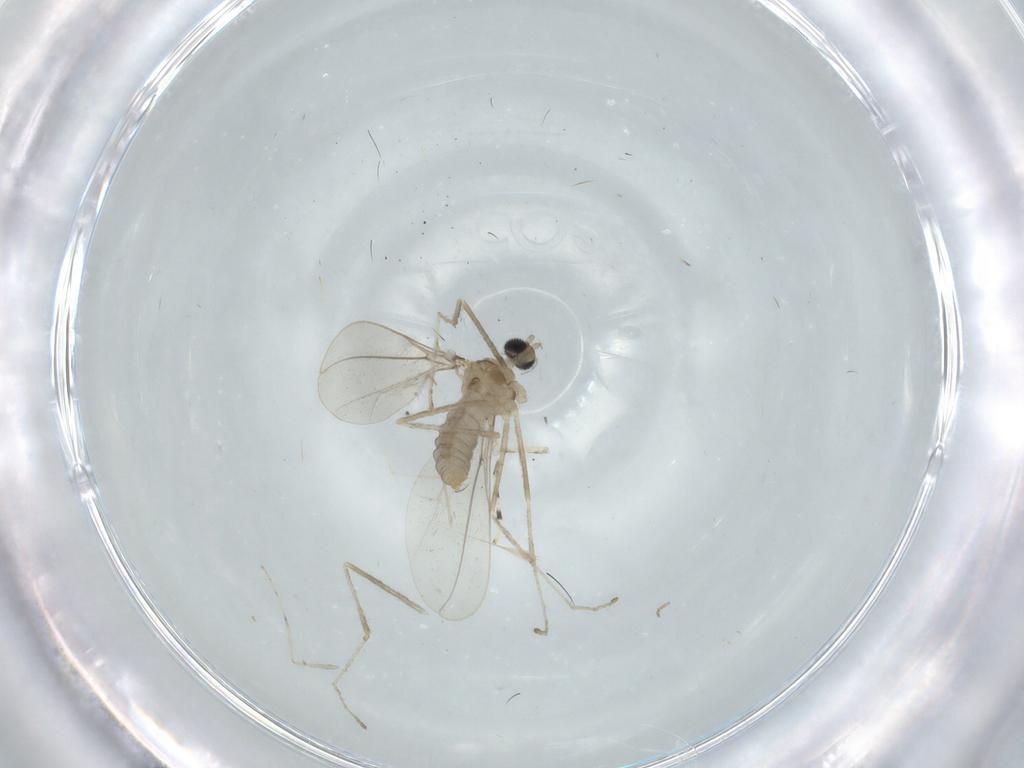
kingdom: Animalia
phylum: Arthropoda
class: Insecta
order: Diptera
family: Cecidomyiidae
